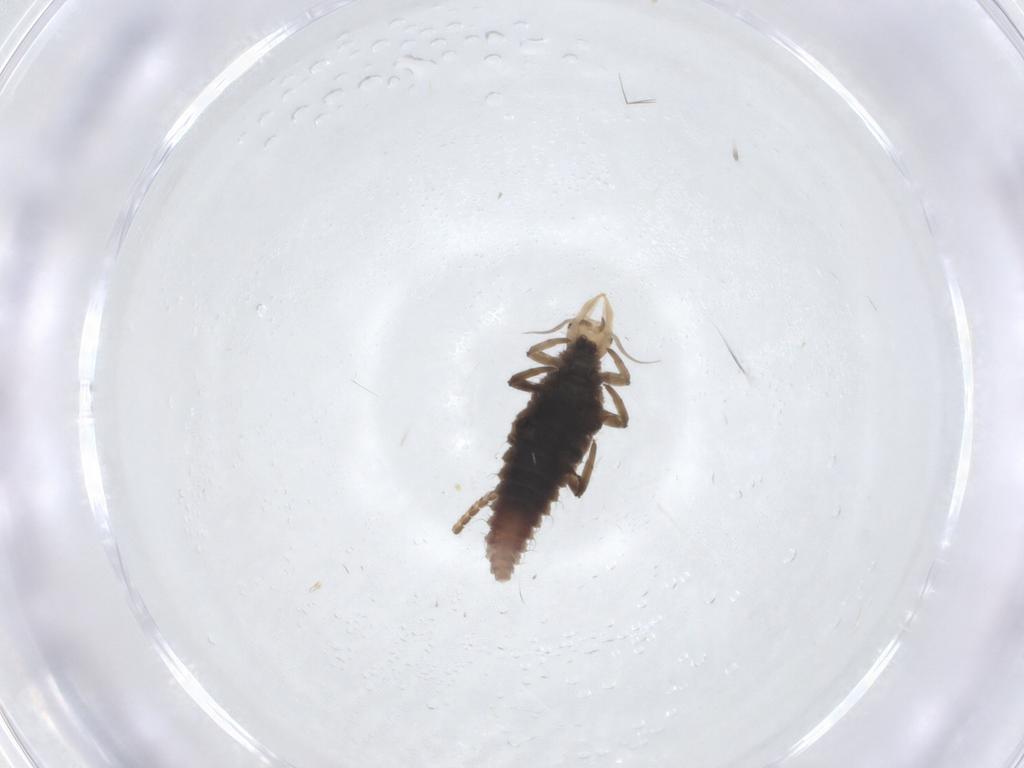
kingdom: Animalia
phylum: Arthropoda
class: Insecta
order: Neuroptera
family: Hemerobiidae
